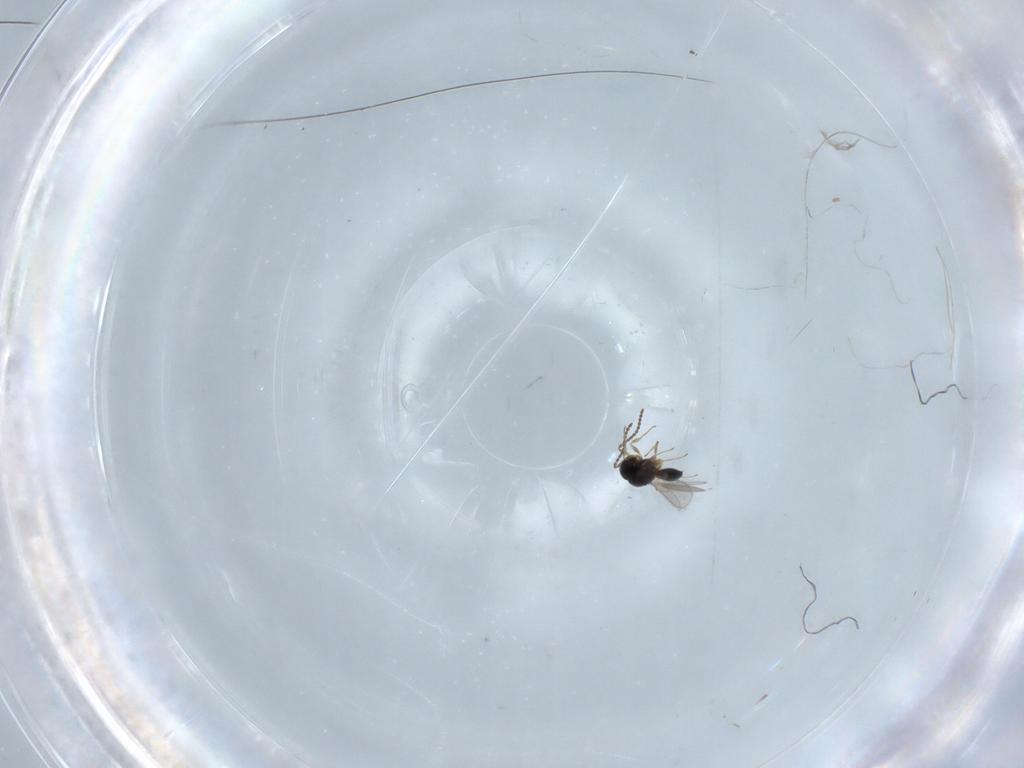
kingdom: Animalia
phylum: Arthropoda
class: Insecta
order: Hymenoptera
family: Scelionidae
